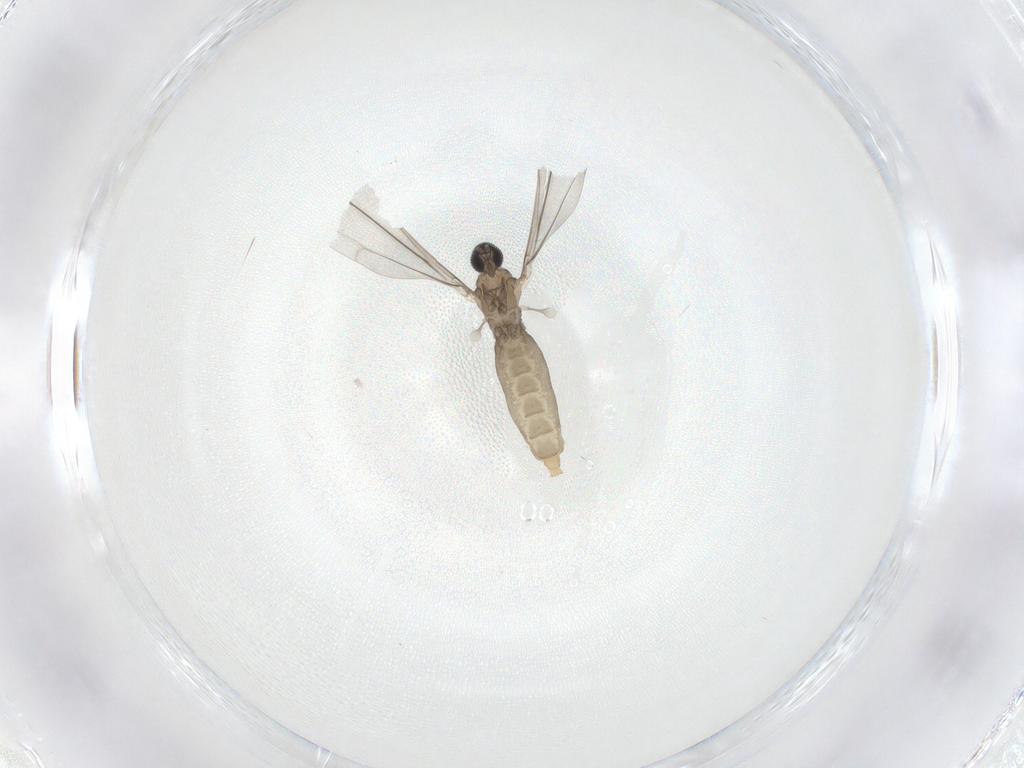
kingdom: Animalia
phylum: Arthropoda
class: Insecta
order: Diptera
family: Cecidomyiidae
